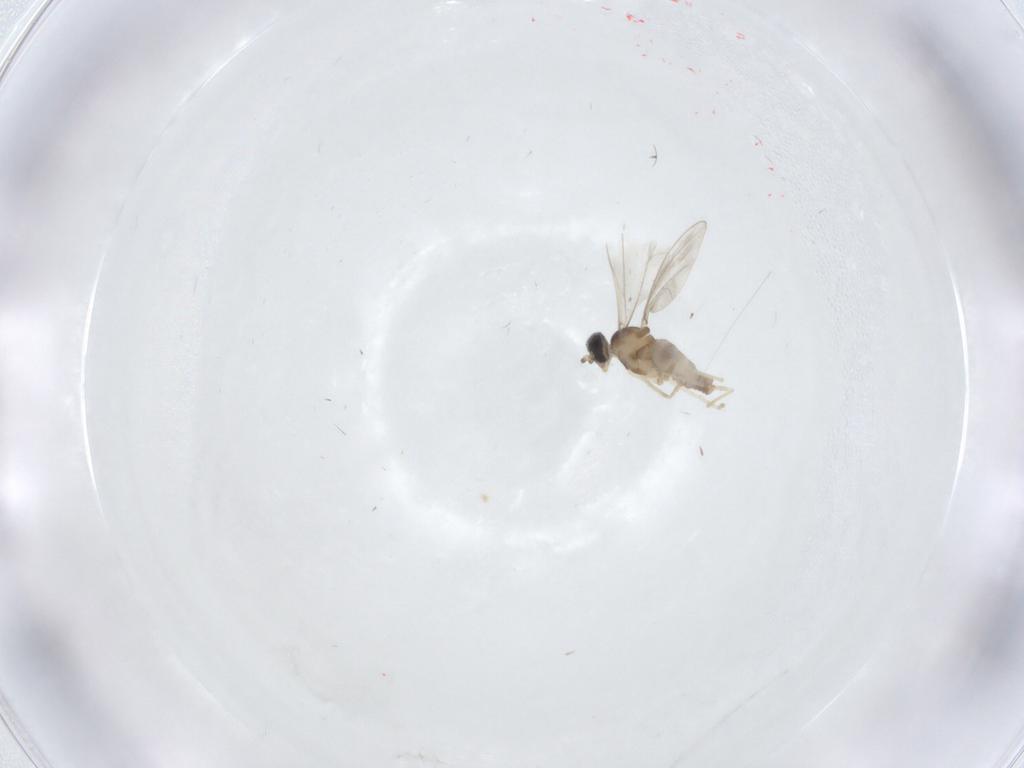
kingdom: Animalia
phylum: Arthropoda
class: Insecta
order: Diptera
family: Cecidomyiidae
